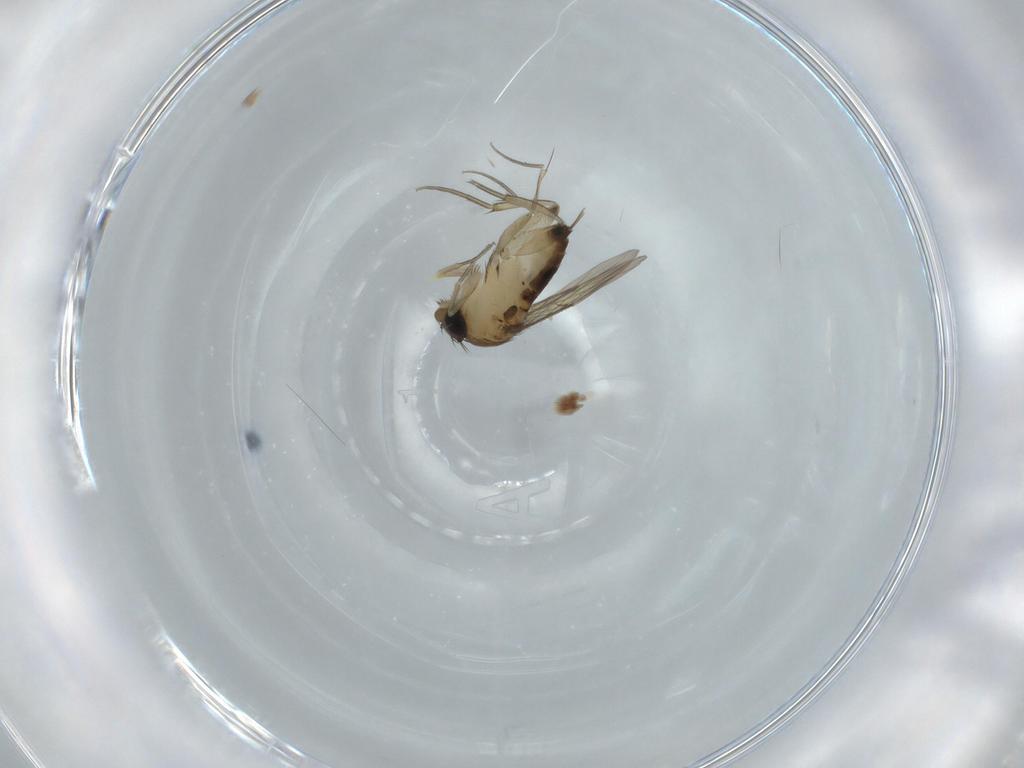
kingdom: Animalia
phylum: Arthropoda
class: Insecta
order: Diptera
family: Phoridae
